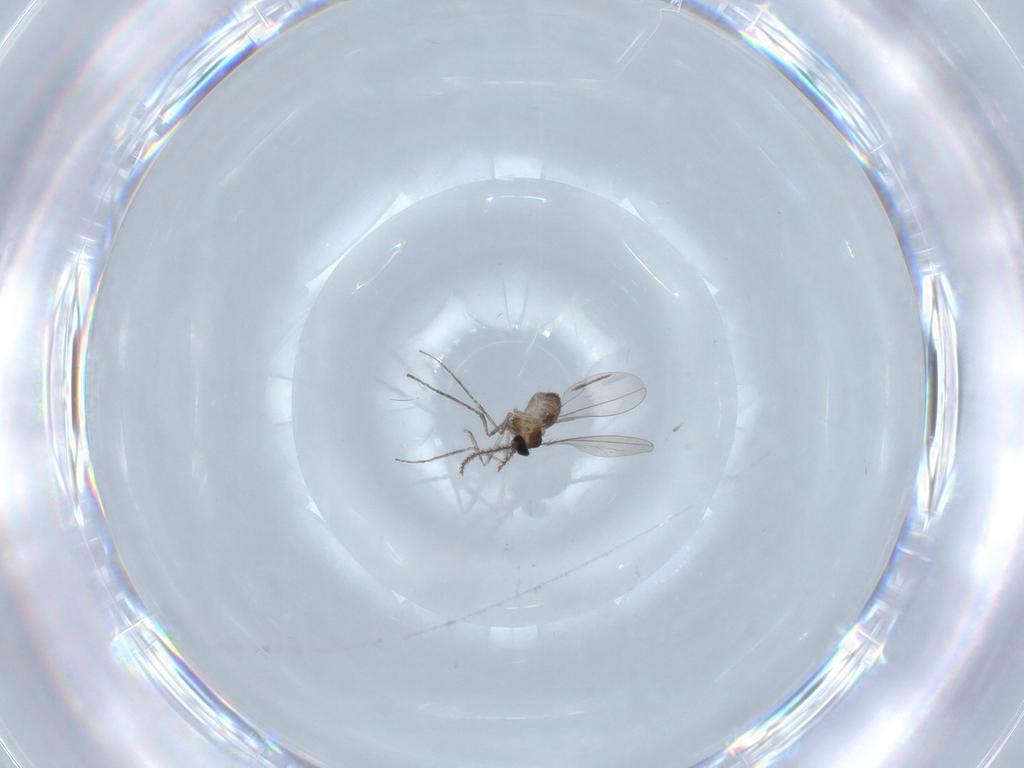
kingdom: Animalia
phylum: Arthropoda
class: Insecta
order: Diptera
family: Cecidomyiidae
